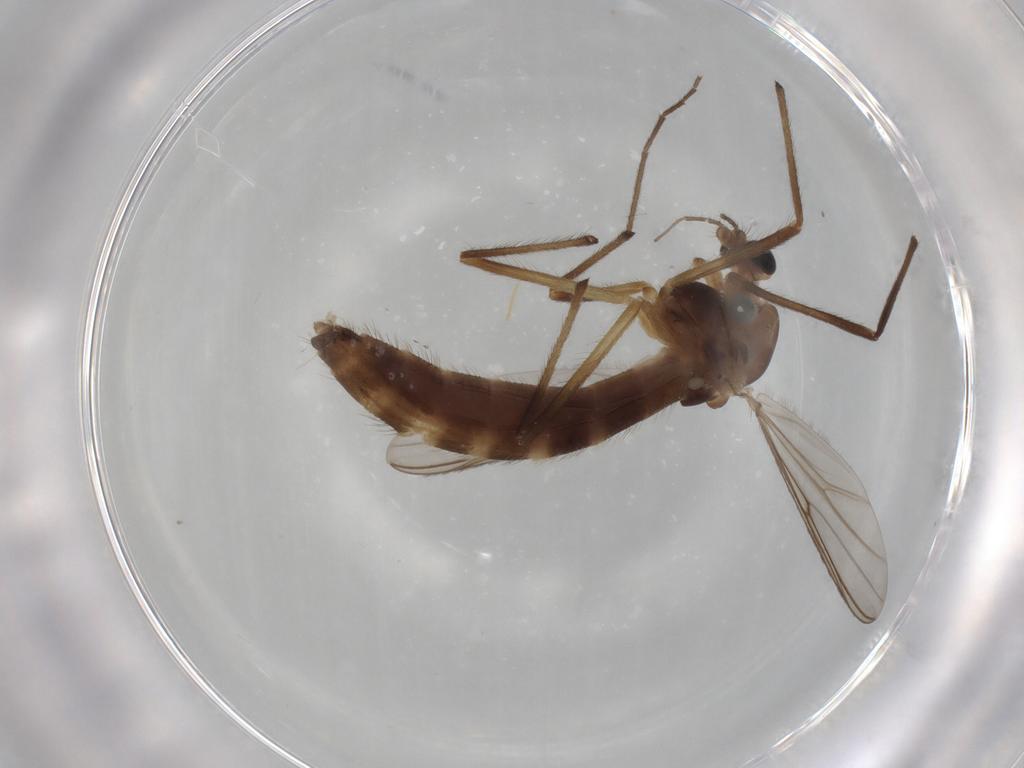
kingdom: Animalia
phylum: Arthropoda
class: Insecta
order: Diptera
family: Chironomidae
